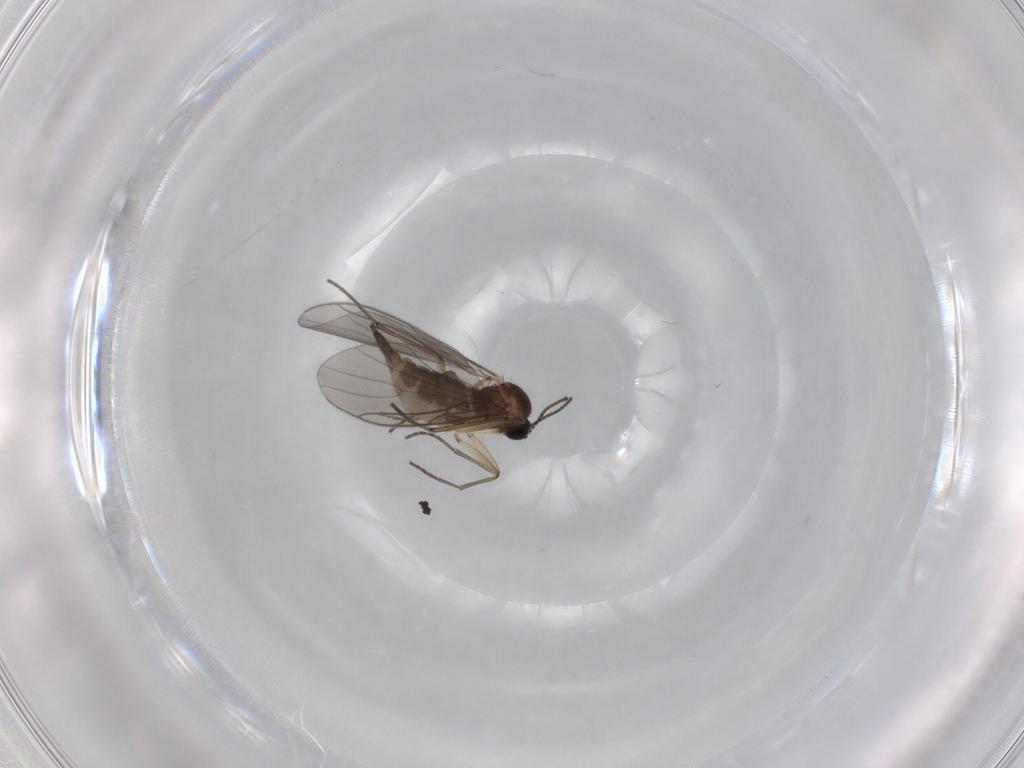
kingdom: Animalia
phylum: Arthropoda
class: Insecta
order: Diptera
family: Sciaridae
